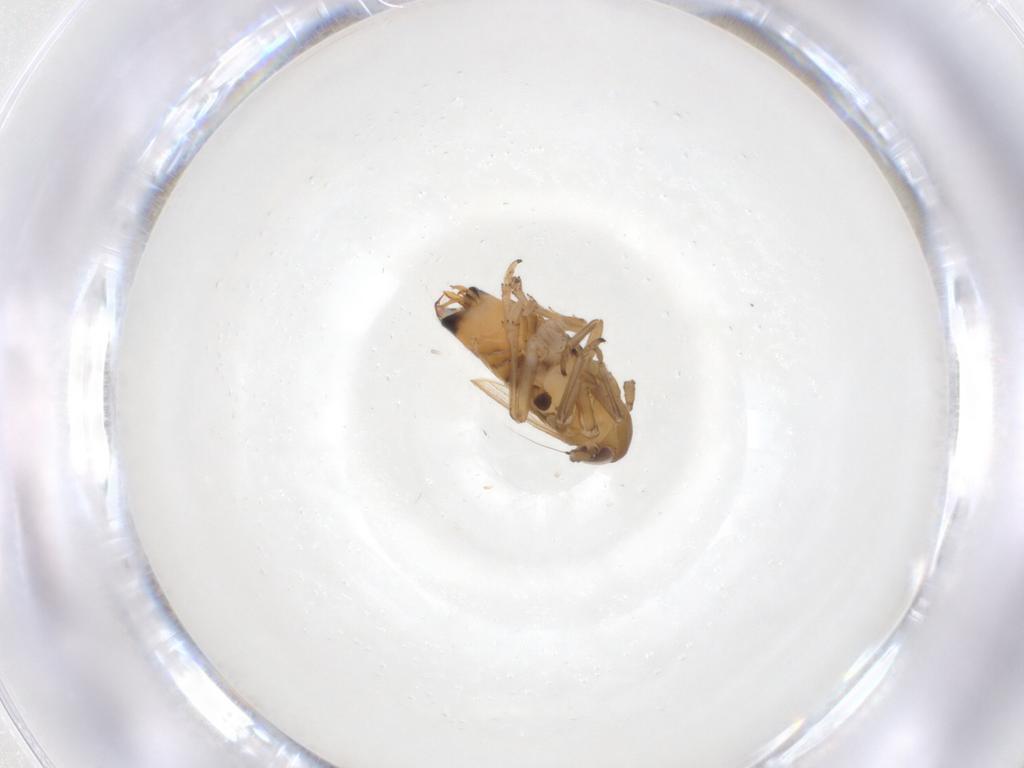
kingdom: Animalia
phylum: Arthropoda
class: Insecta
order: Hemiptera
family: Delphacidae
